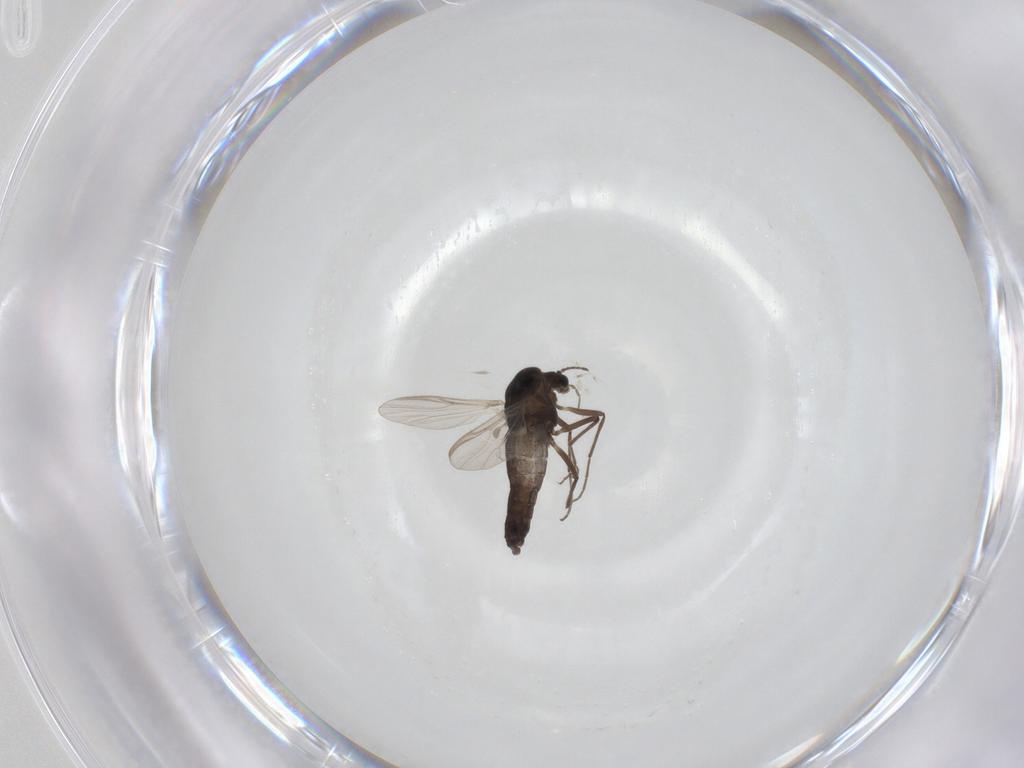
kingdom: Animalia
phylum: Arthropoda
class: Insecta
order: Diptera
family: Chironomidae
